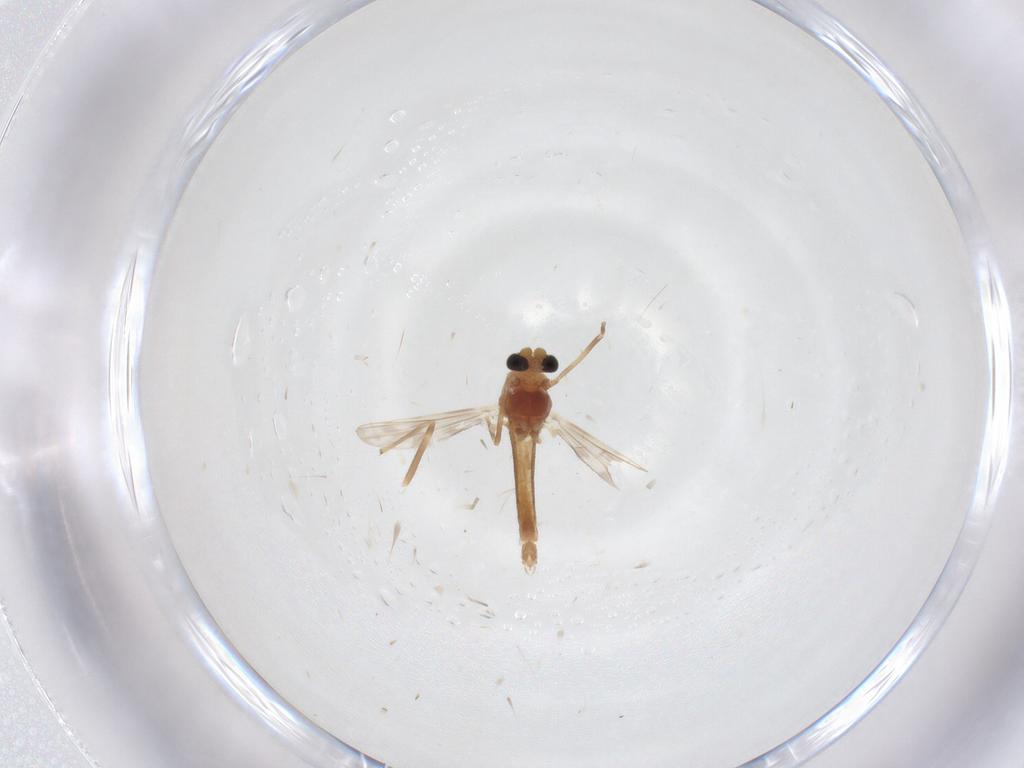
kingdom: Animalia
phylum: Arthropoda
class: Insecta
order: Diptera
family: Chironomidae
